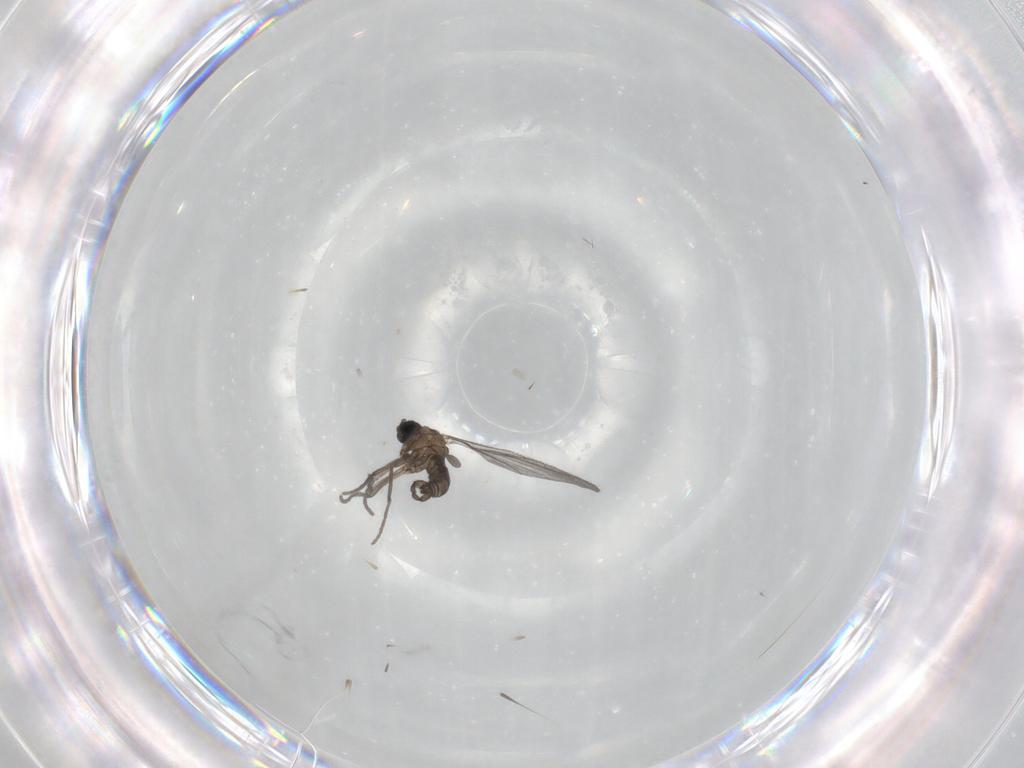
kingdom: Animalia
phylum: Arthropoda
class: Insecta
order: Diptera
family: Sciaridae
